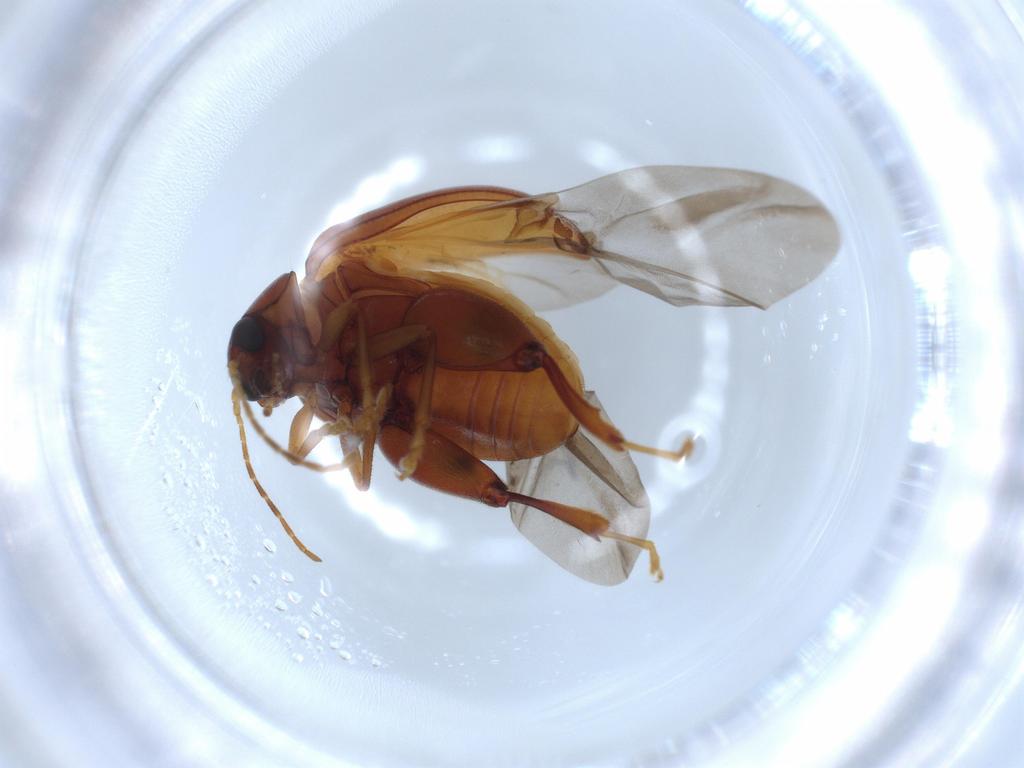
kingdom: Animalia
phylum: Arthropoda
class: Insecta
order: Coleoptera
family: Chrysomelidae
